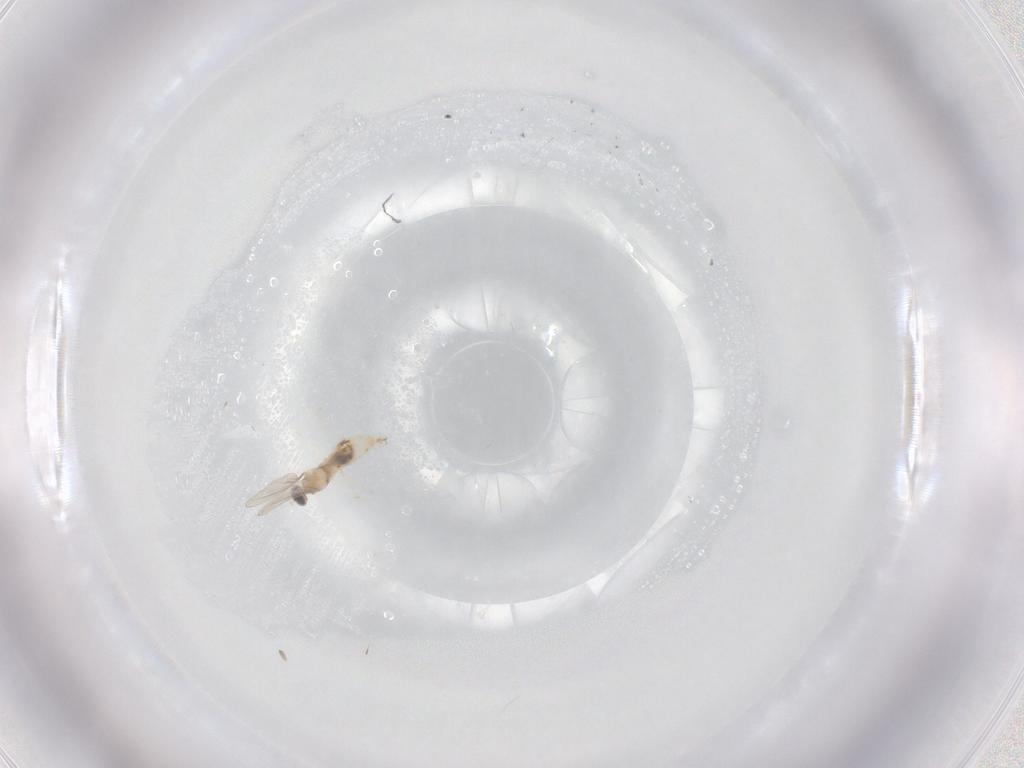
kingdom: Animalia
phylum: Arthropoda
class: Insecta
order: Diptera
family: Cecidomyiidae
